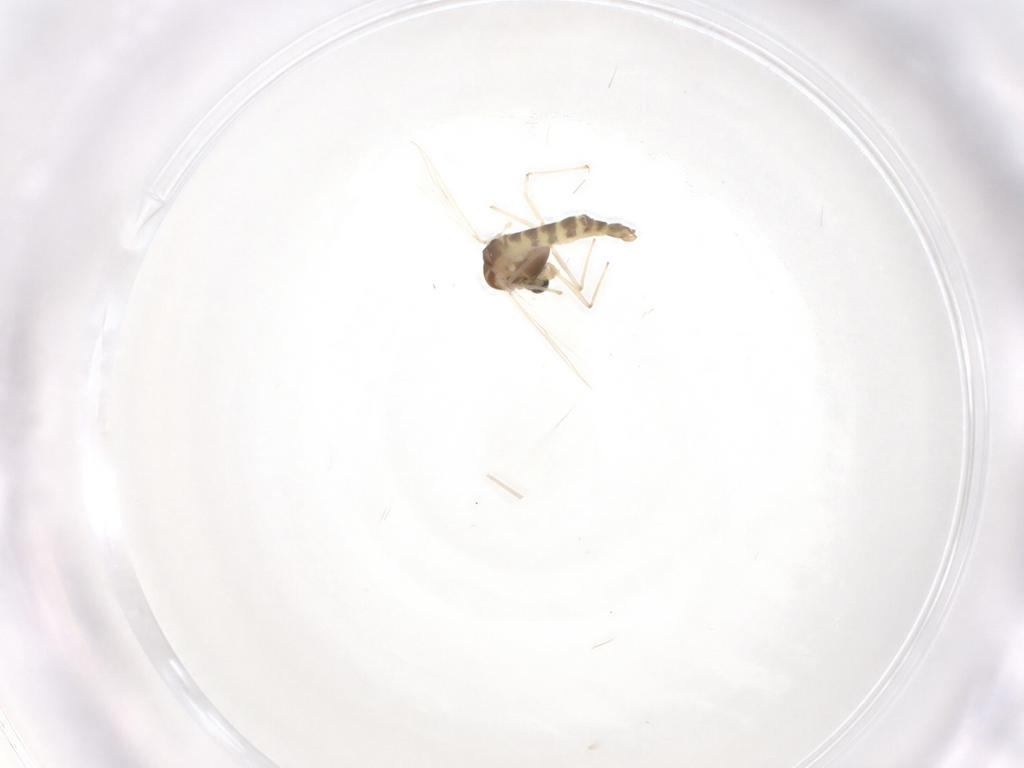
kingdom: Animalia
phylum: Arthropoda
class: Insecta
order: Diptera
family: Chironomidae
